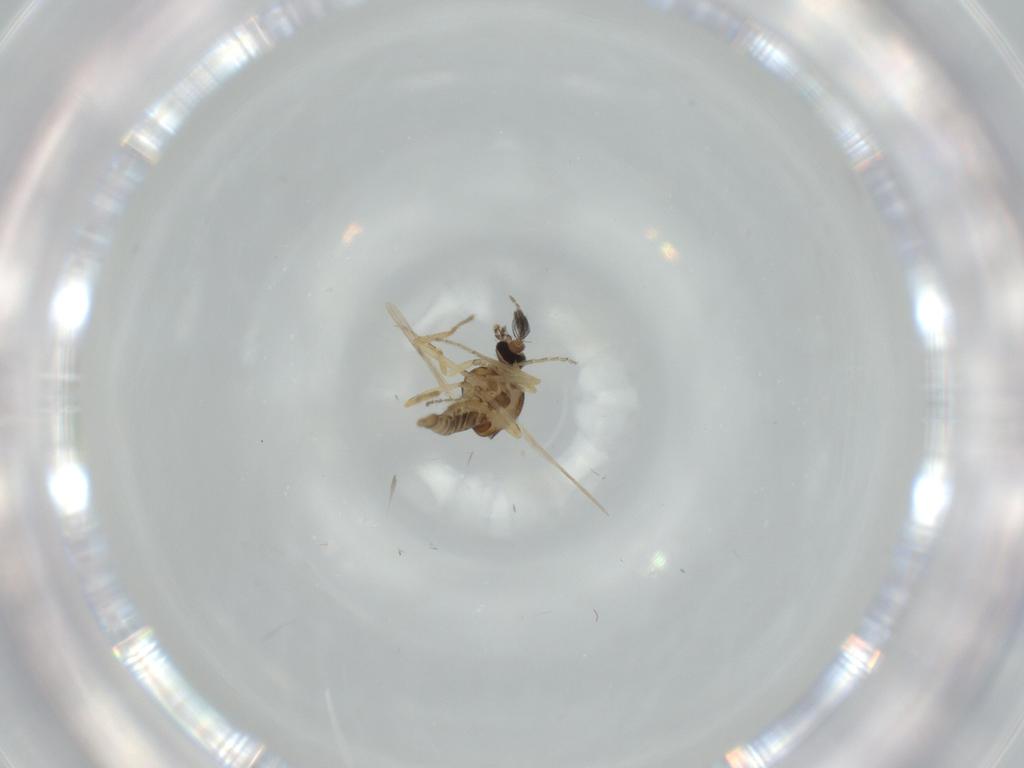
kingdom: Animalia
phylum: Arthropoda
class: Insecta
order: Diptera
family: Ceratopogonidae
